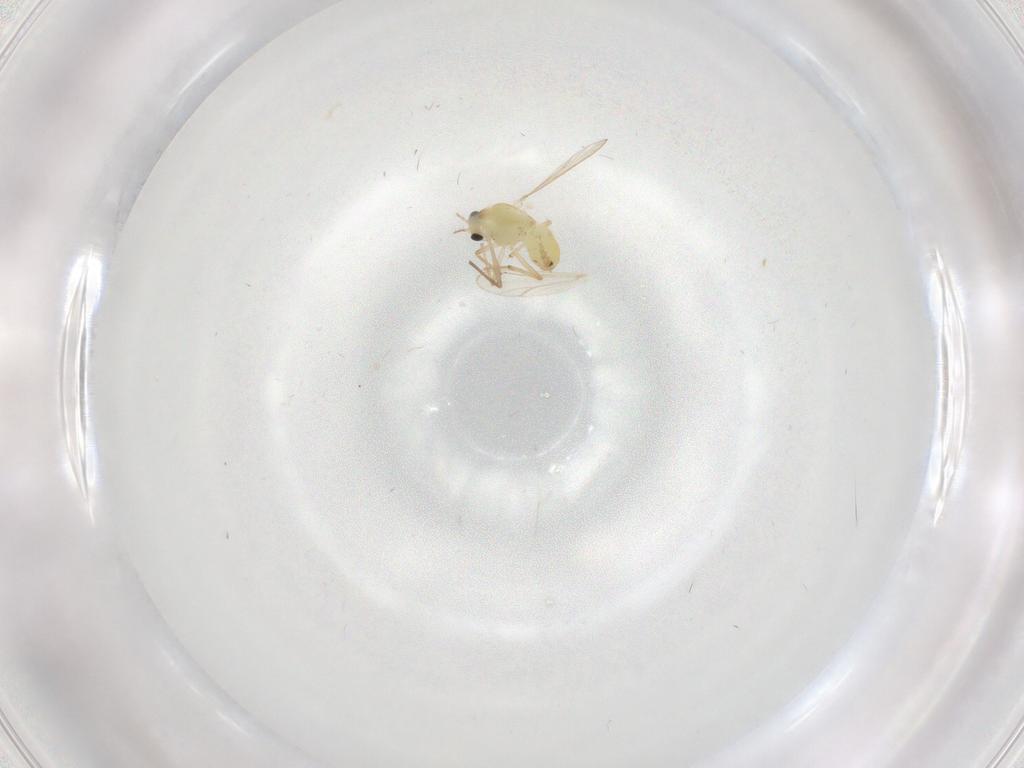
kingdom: Animalia
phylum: Arthropoda
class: Insecta
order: Diptera
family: Chironomidae
